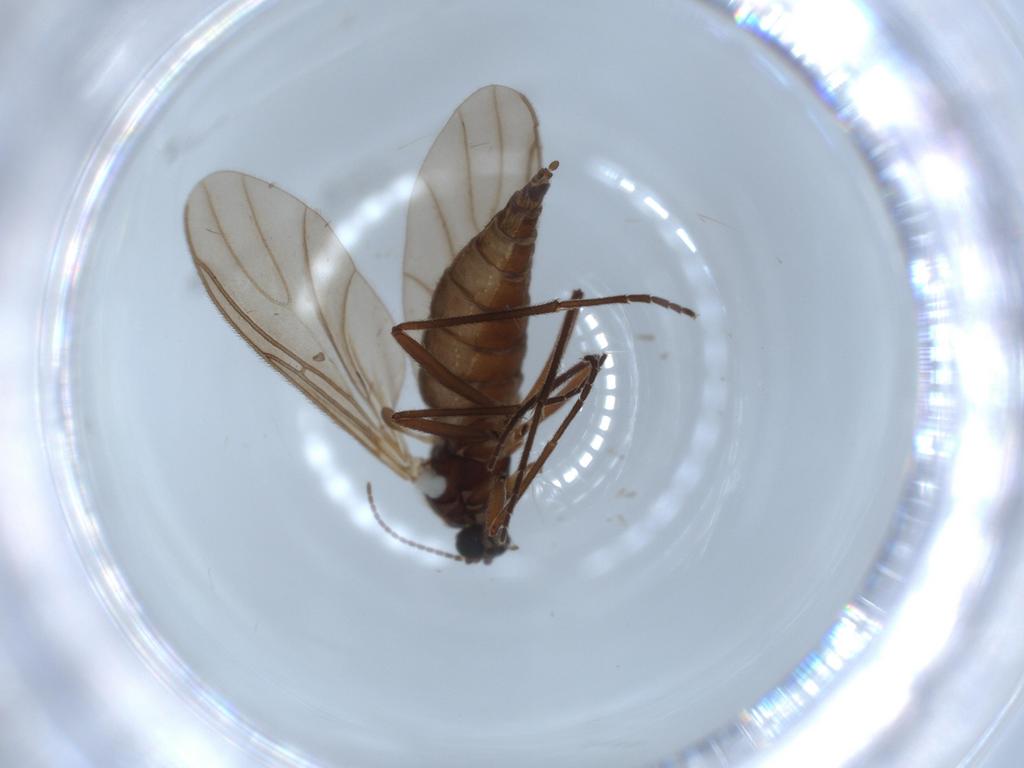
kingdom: Animalia
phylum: Arthropoda
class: Insecta
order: Diptera
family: Sciaridae
